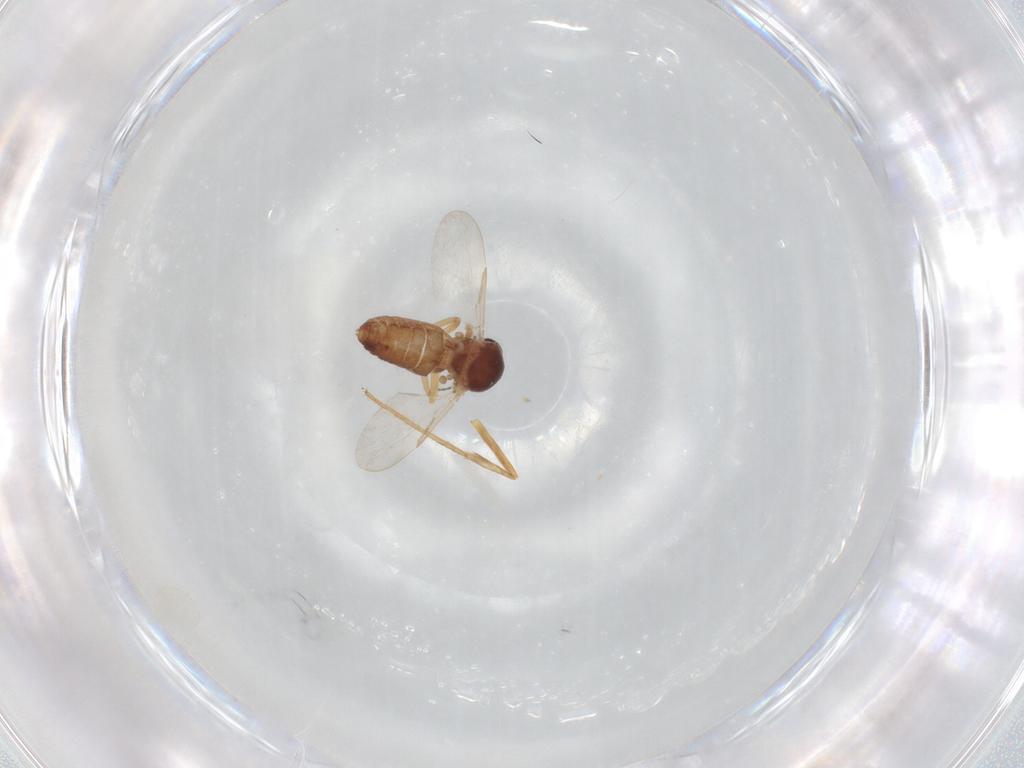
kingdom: Animalia
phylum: Arthropoda
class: Insecta
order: Diptera
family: Ceratopogonidae
